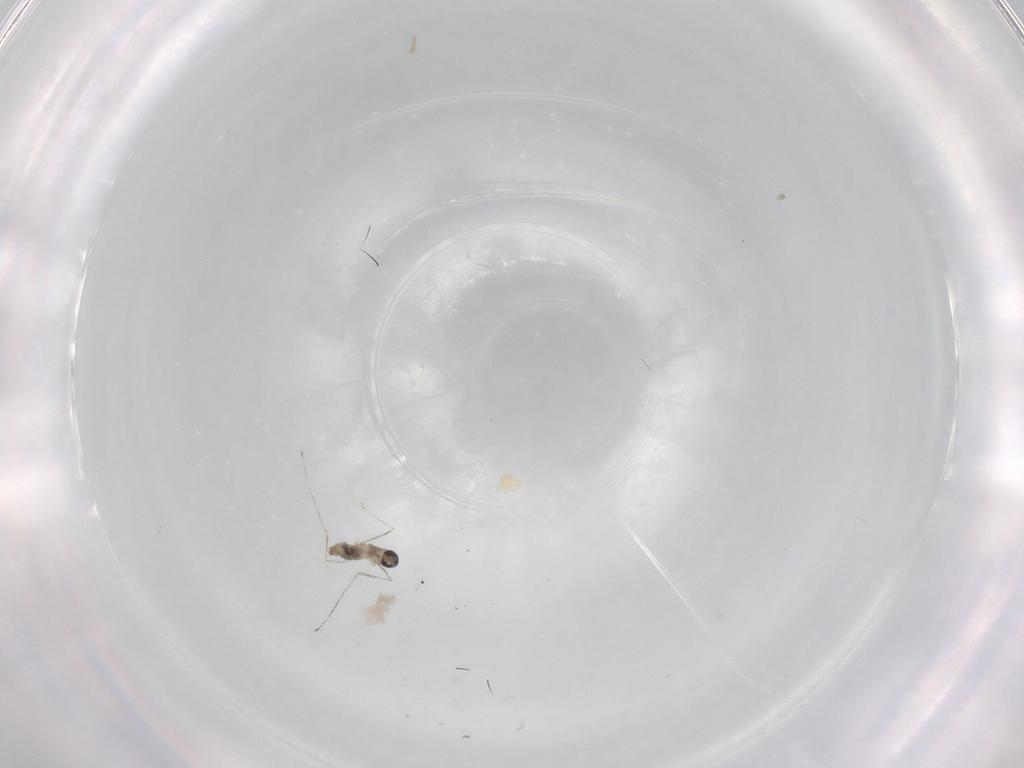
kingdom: Animalia
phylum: Arthropoda
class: Insecta
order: Diptera
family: Cecidomyiidae
